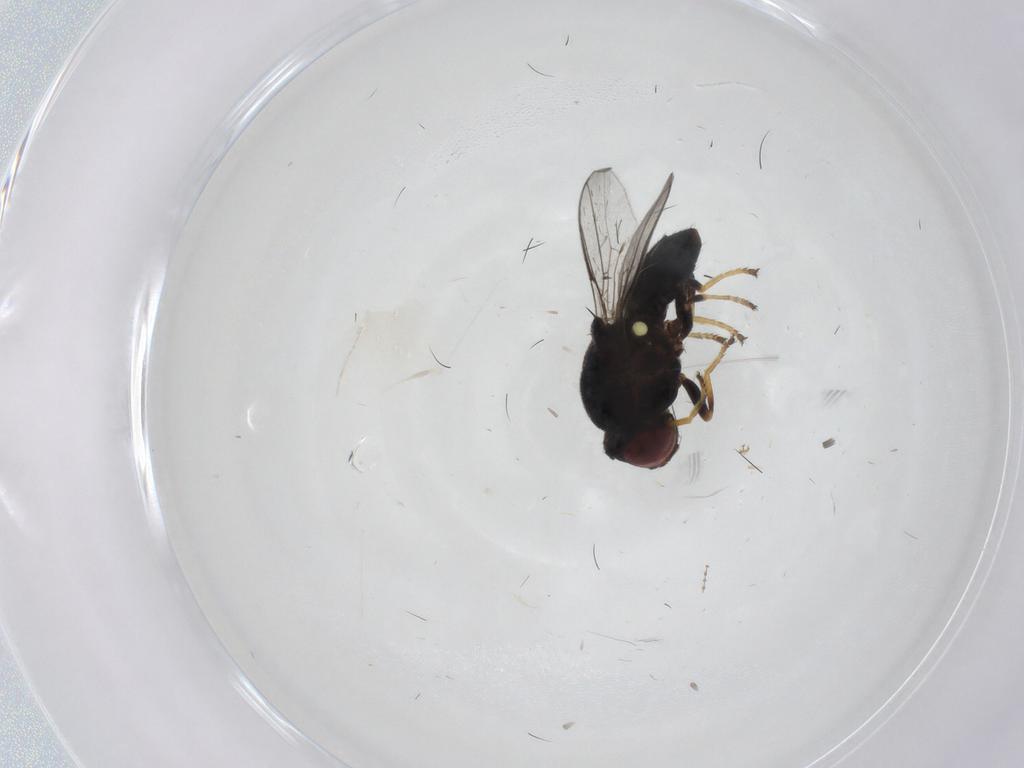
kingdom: Animalia
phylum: Arthropoda
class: Insecta
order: Diptera
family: Chloropidae
